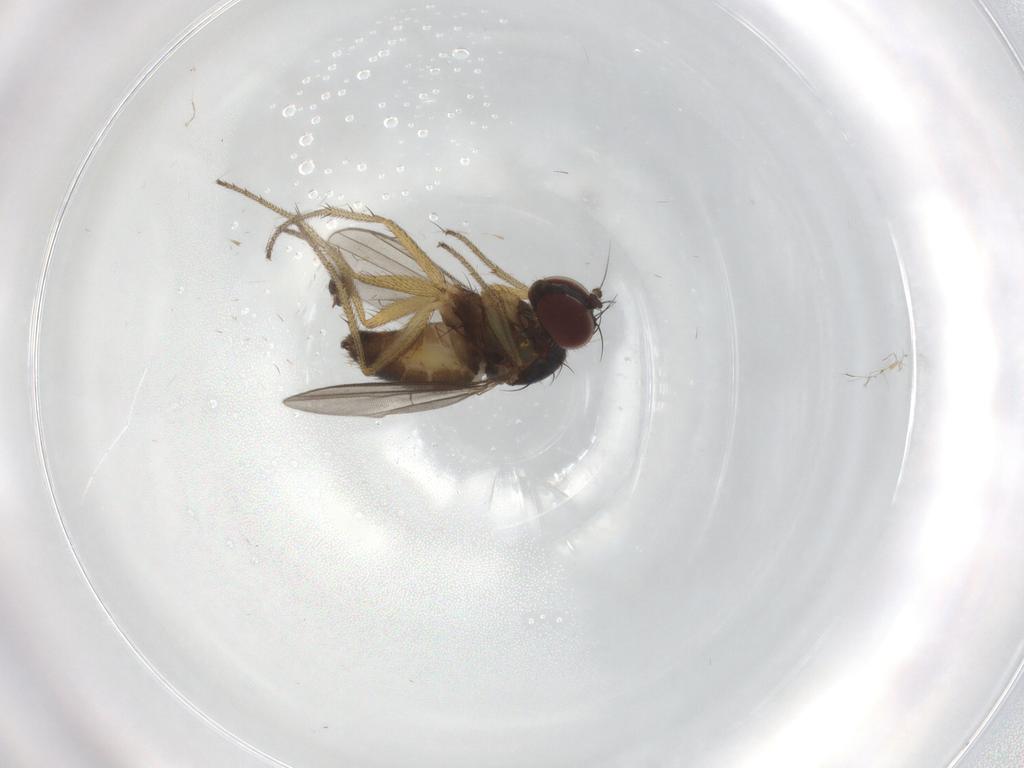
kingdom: Animalia
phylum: Arthropoda
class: Insecta
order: Diptera
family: Dolichopodidae
